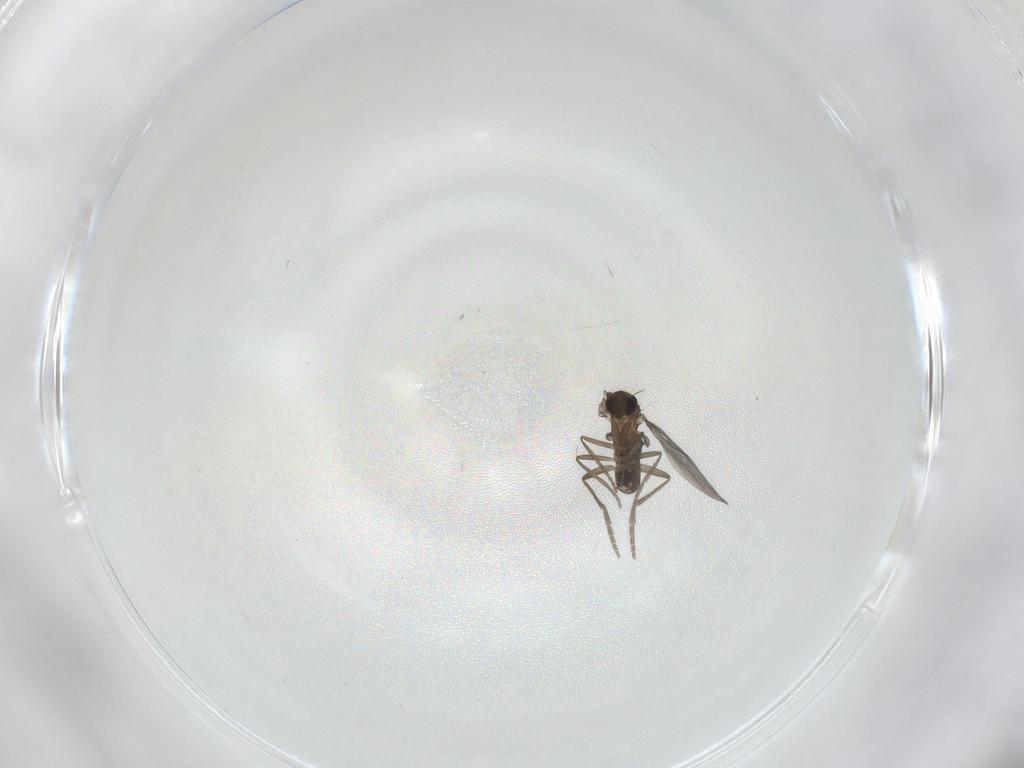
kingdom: Animalia
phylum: Arthropoda
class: Insecta
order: Diptera
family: Phoridae
